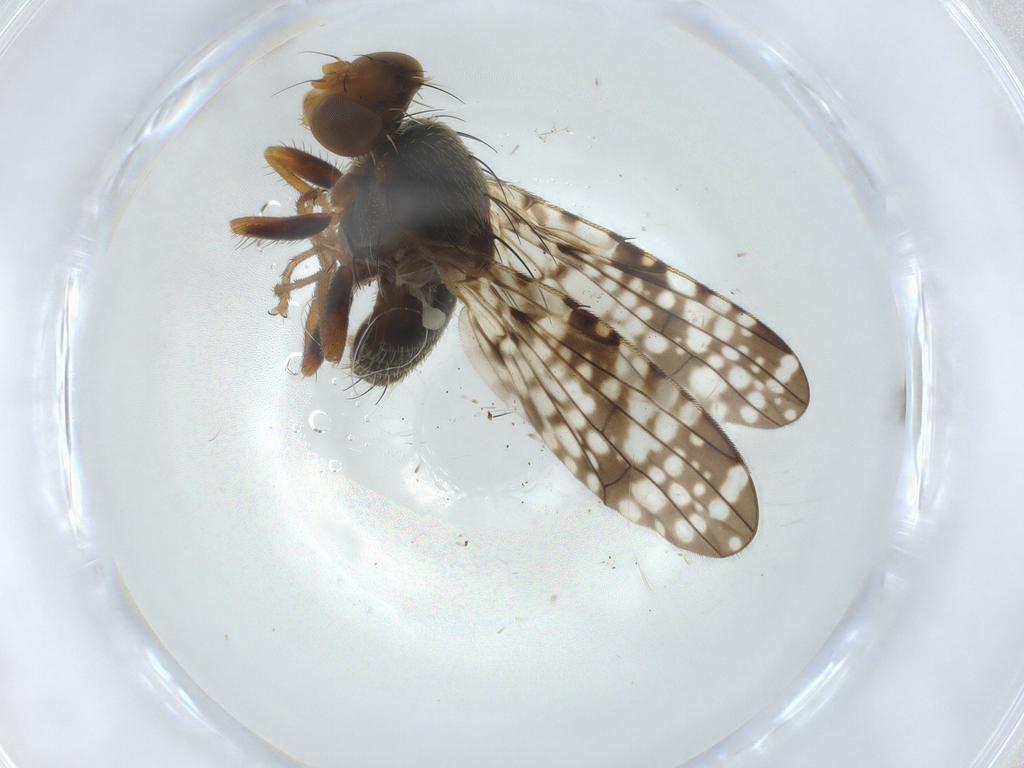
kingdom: Animalia
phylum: Arthropoda
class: Insecta
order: Diptera
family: Tephritidae
